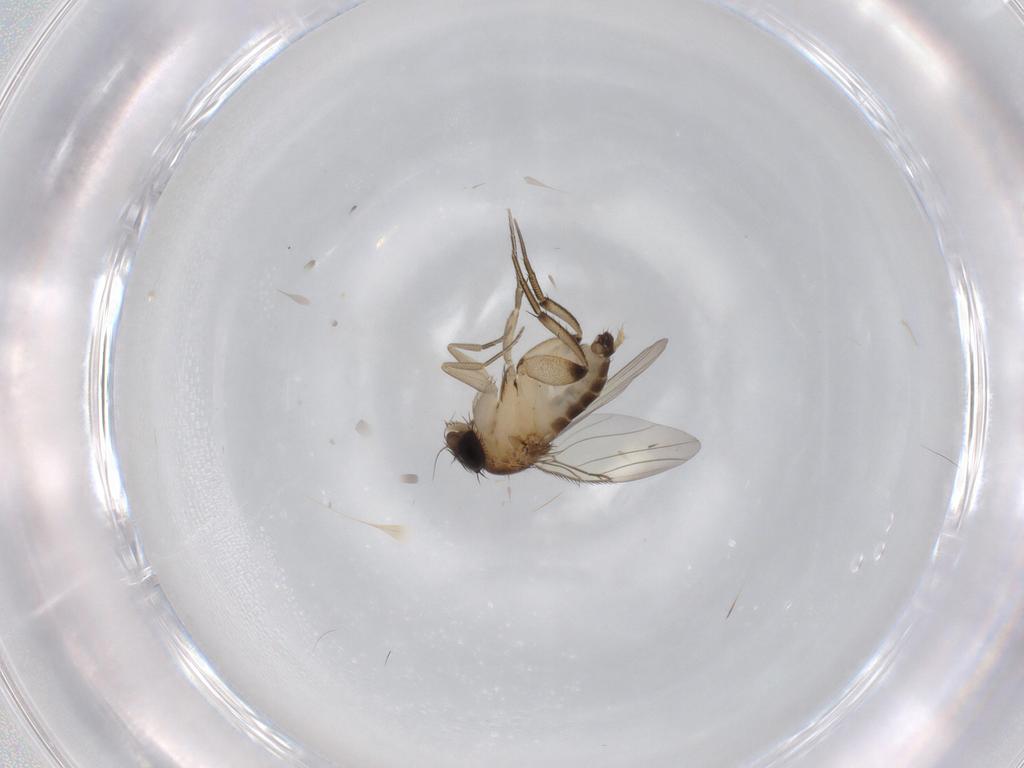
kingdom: Animalia
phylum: Arthropoda
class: Insecta
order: Diptera
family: Phoridae
